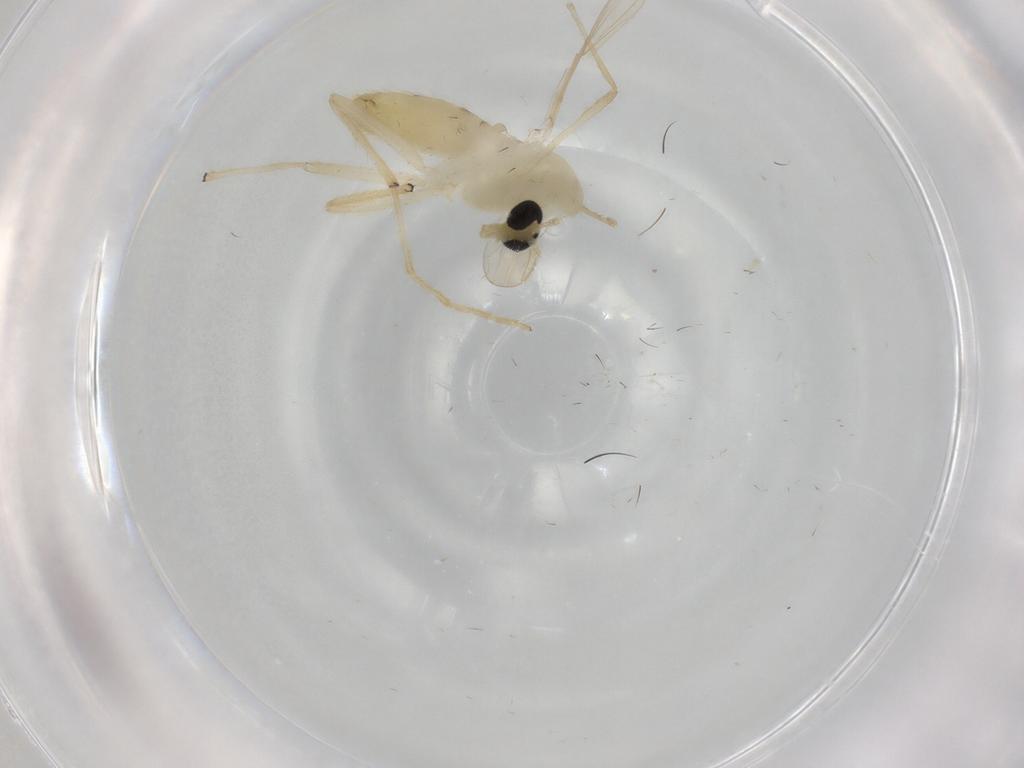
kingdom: Animalia
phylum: Arthropoda
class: Insecta
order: Diptera
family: Chironomidae
